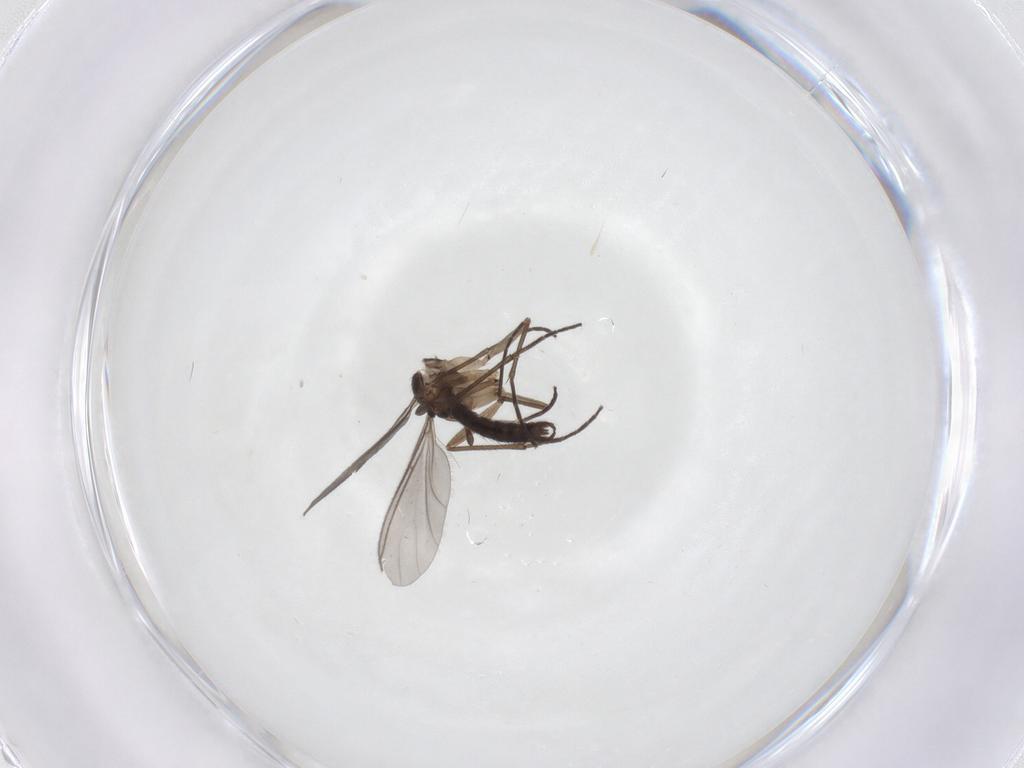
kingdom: Animalia
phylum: Arthropoda
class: Insecta
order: Diptera
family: Sciaridae
